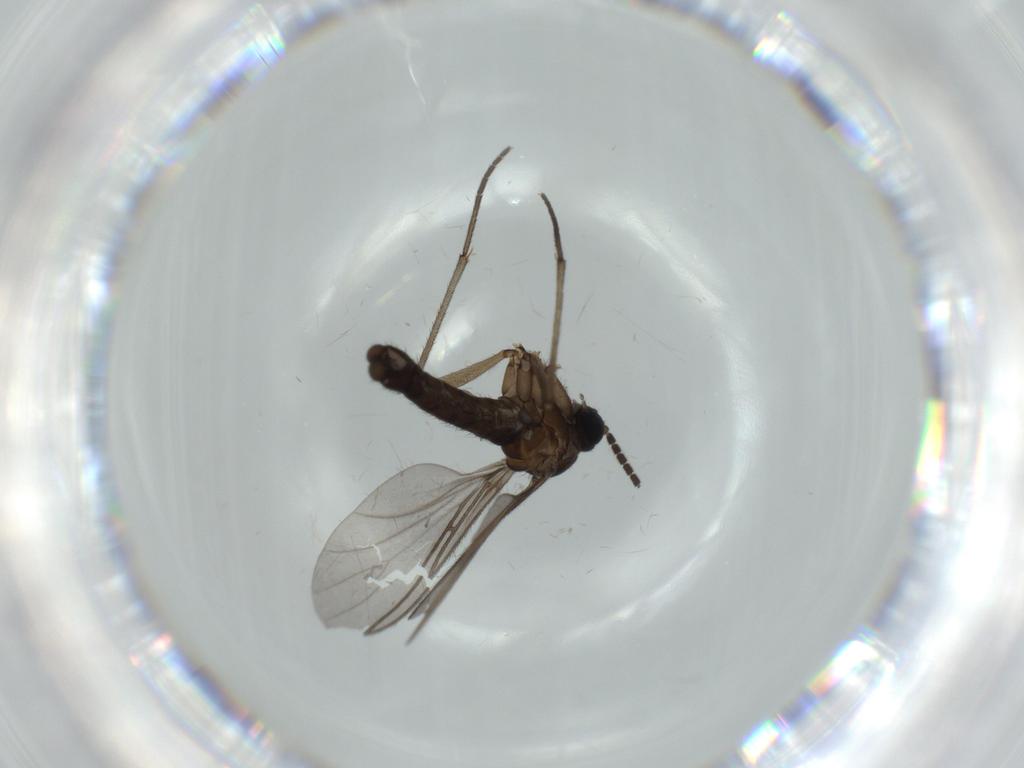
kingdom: Animalia
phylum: Arthropoda
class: Insecta
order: Diptera
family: Sciaridae
